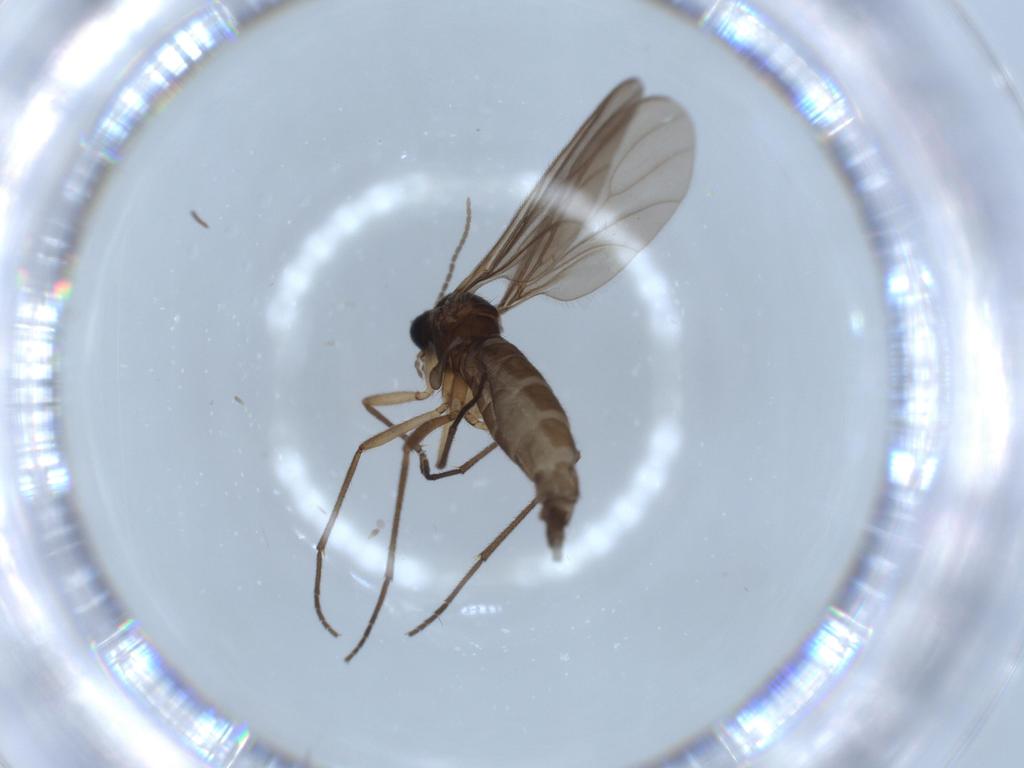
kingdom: Animalia
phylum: Arthropoda
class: Insecta
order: Diptera
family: Sciaridae
